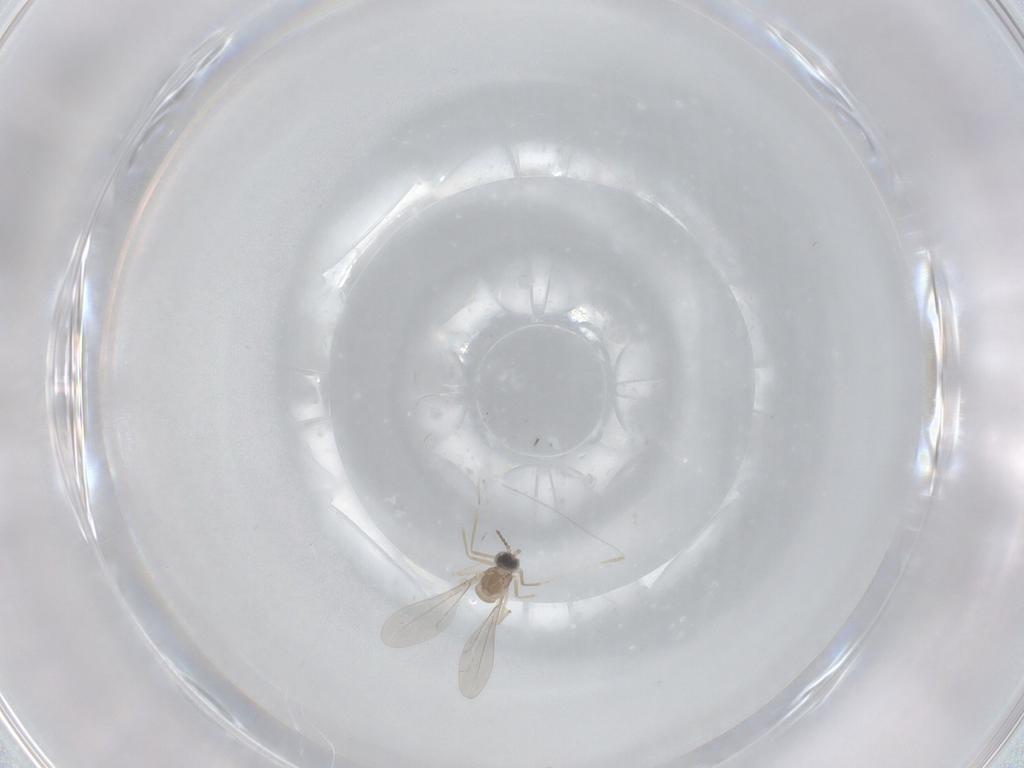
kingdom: Animalia
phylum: Arthropoda
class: Insecta
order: Diptera
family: Cecidomyiidae
